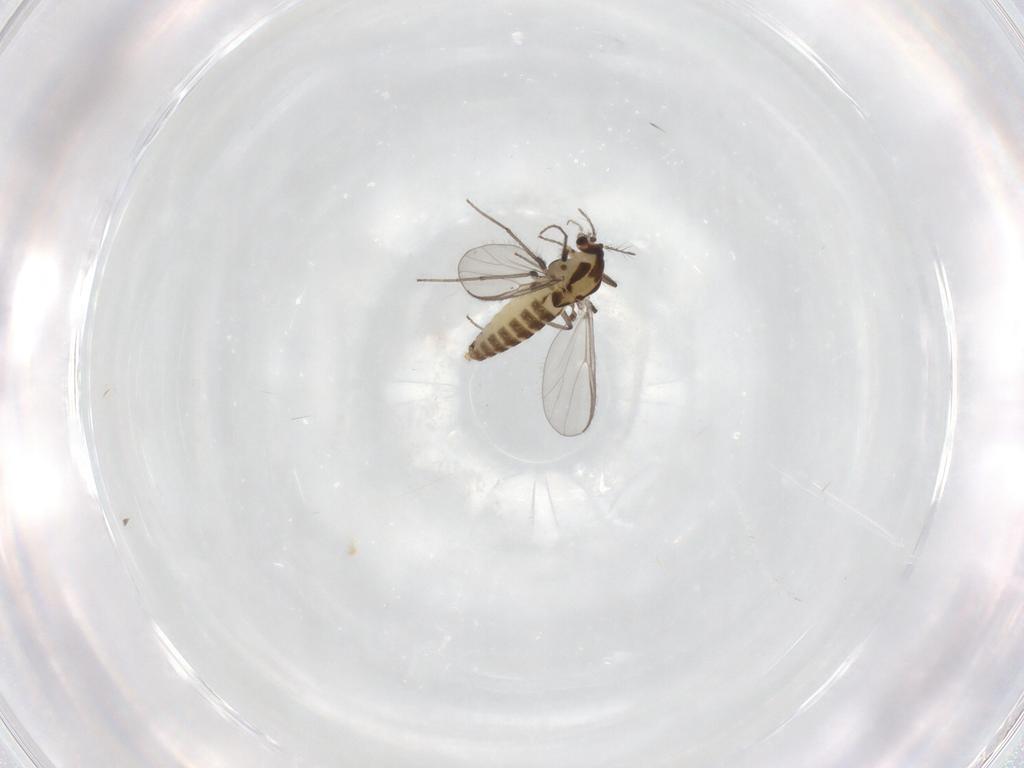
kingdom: Animalia
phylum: Arthropoda
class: Insecta
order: Diptera
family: Chironomidae
